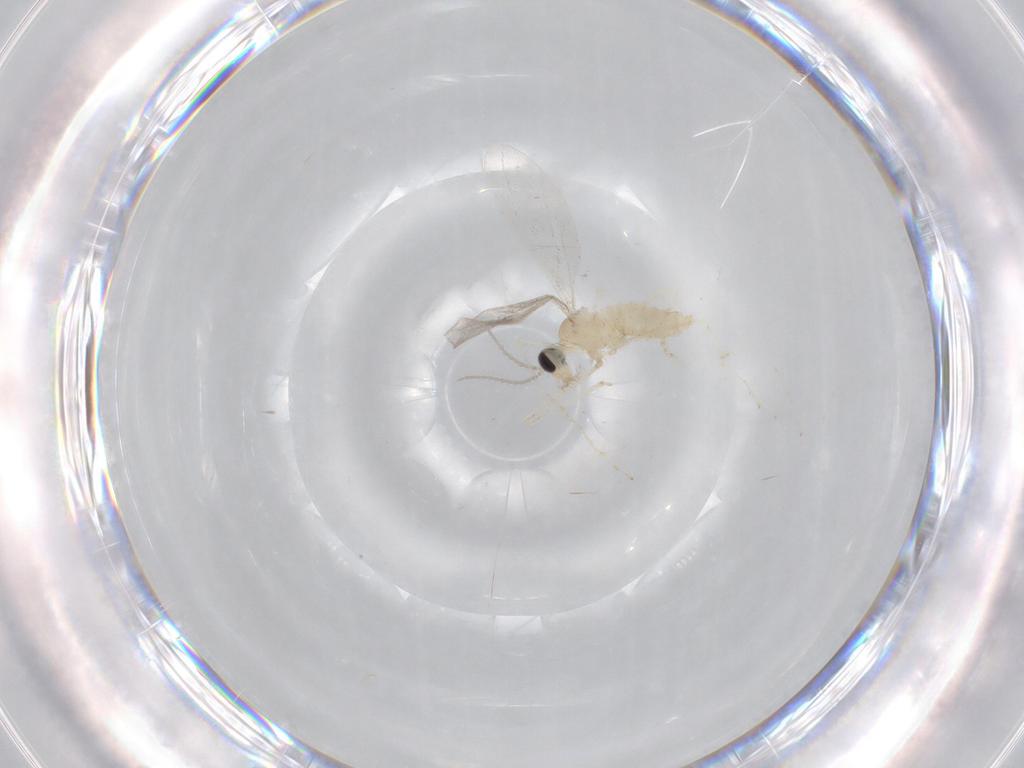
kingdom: Animalia
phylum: Arthropoda
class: Insecta
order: Diptera
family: Cecidomyiidae
